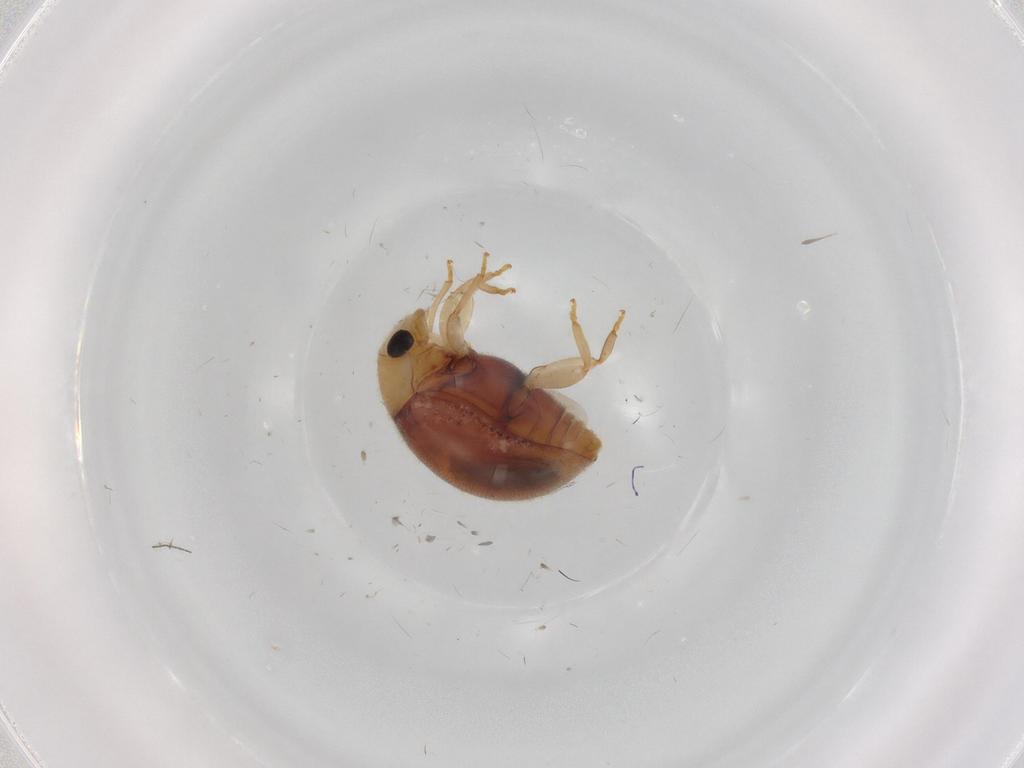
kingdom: Animalia
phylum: Arthropoda
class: Insecta
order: Coleoptera
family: Coccinellidae
